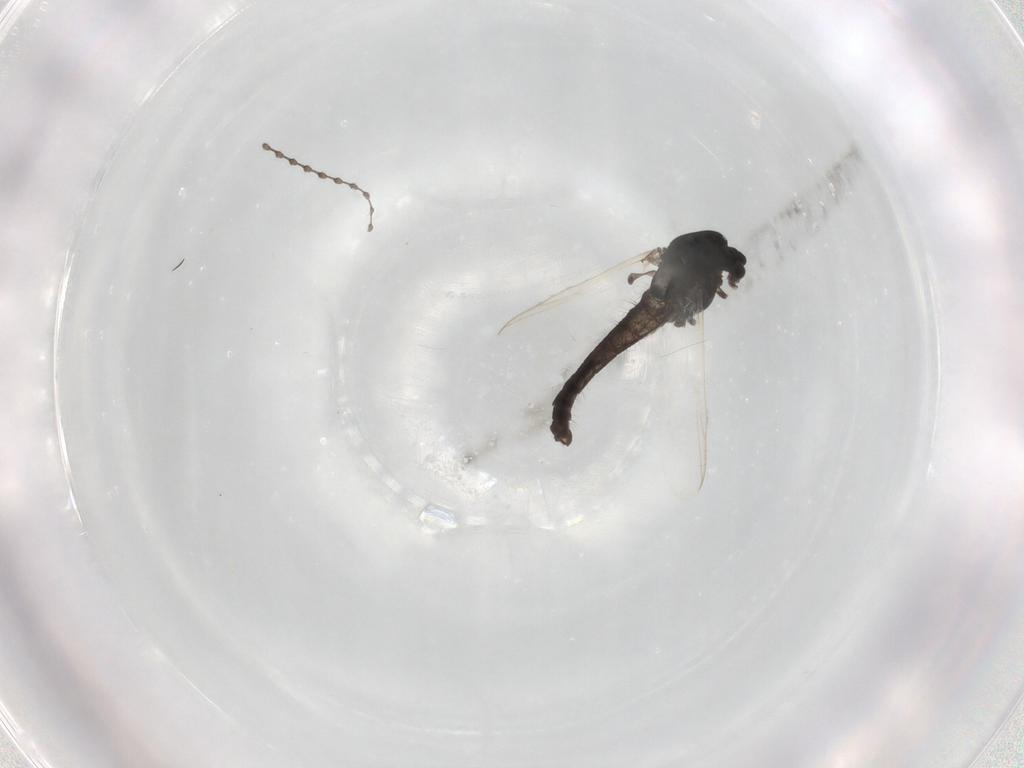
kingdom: Animalia
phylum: Arthropoda
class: Insecta
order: Diptera
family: Cecidomyiidae
